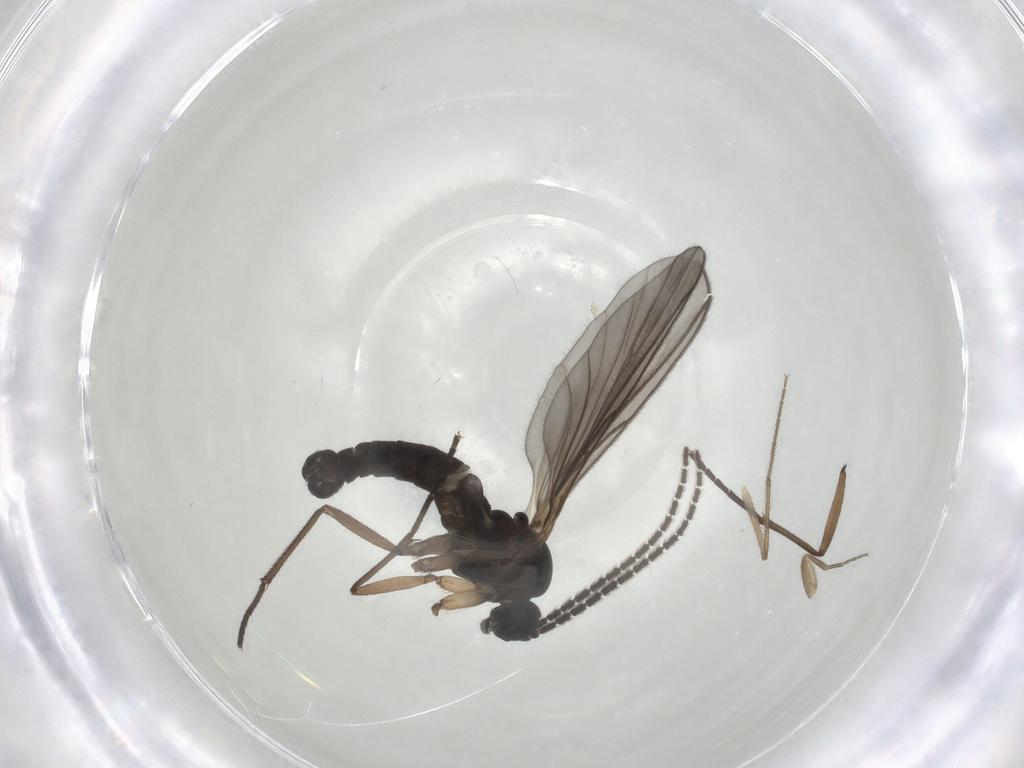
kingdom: Animalia
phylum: Arthropoda
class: Insecta
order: Diptera
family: Sciaridae
